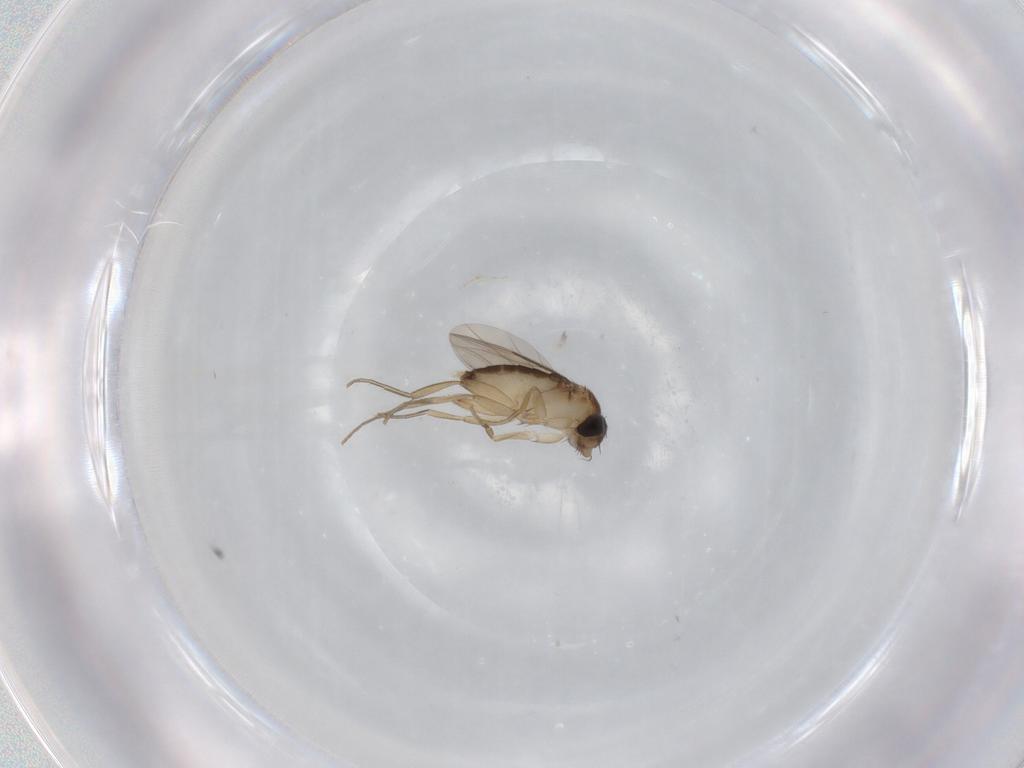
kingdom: Animalia
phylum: Arthropoda
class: Insecta
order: Diptera
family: Phoridae
